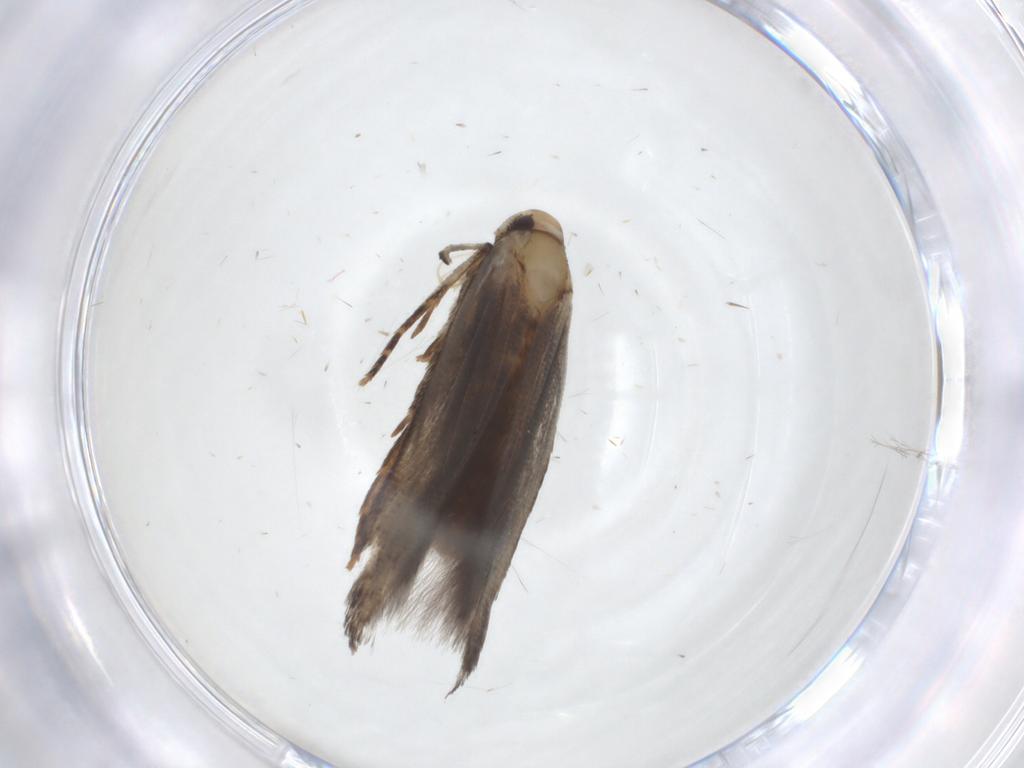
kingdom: Animalia
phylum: Arthropoda
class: Insecta
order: Lepidoptera
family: Cosmopterigidae
